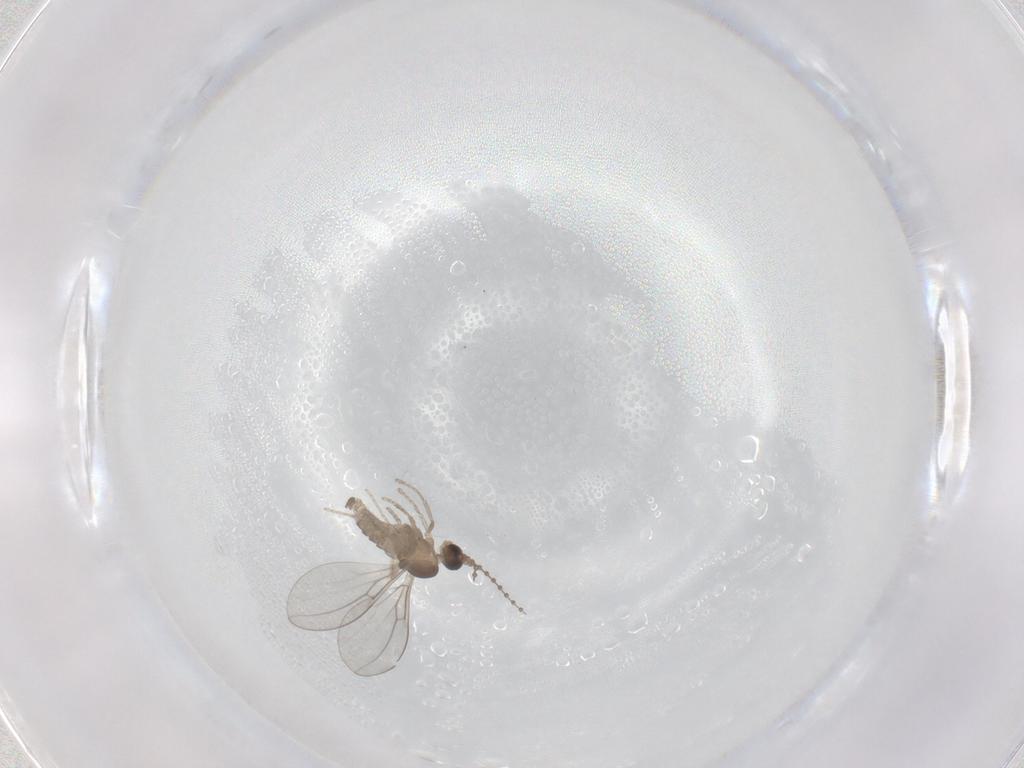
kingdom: Animalia
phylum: Arthropoda
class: Insecta
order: Diptera
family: Cecidomyiidae
